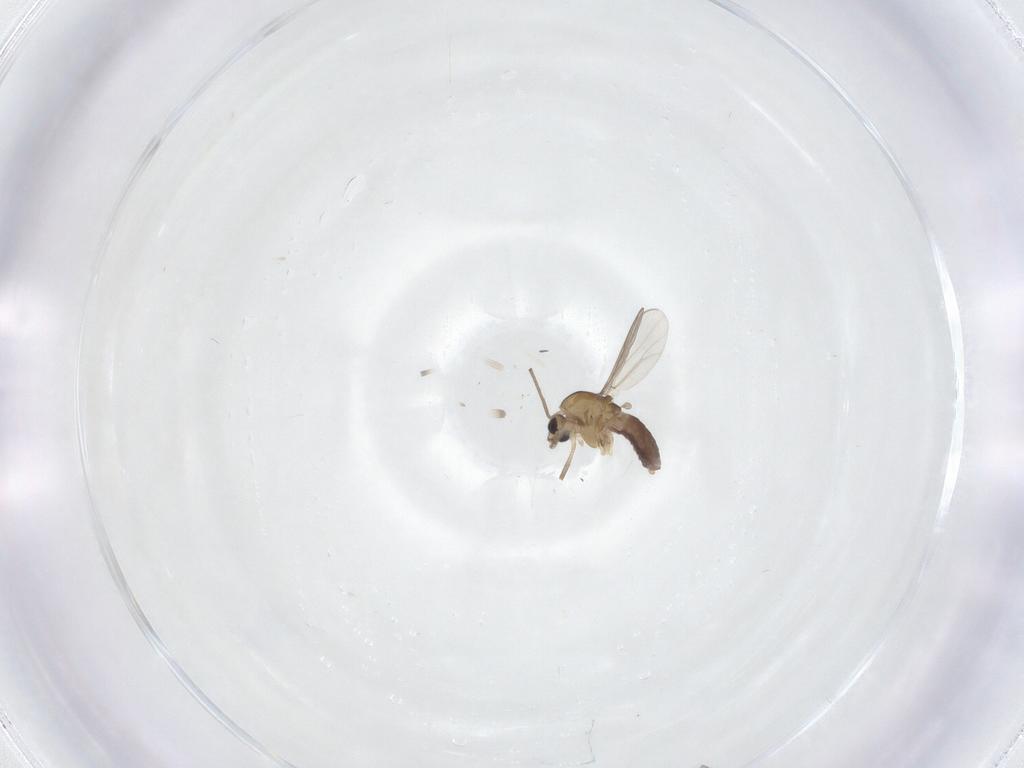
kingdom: Animalia
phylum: Arthropoda
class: Insecta
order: Diptera
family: Chironomidae
